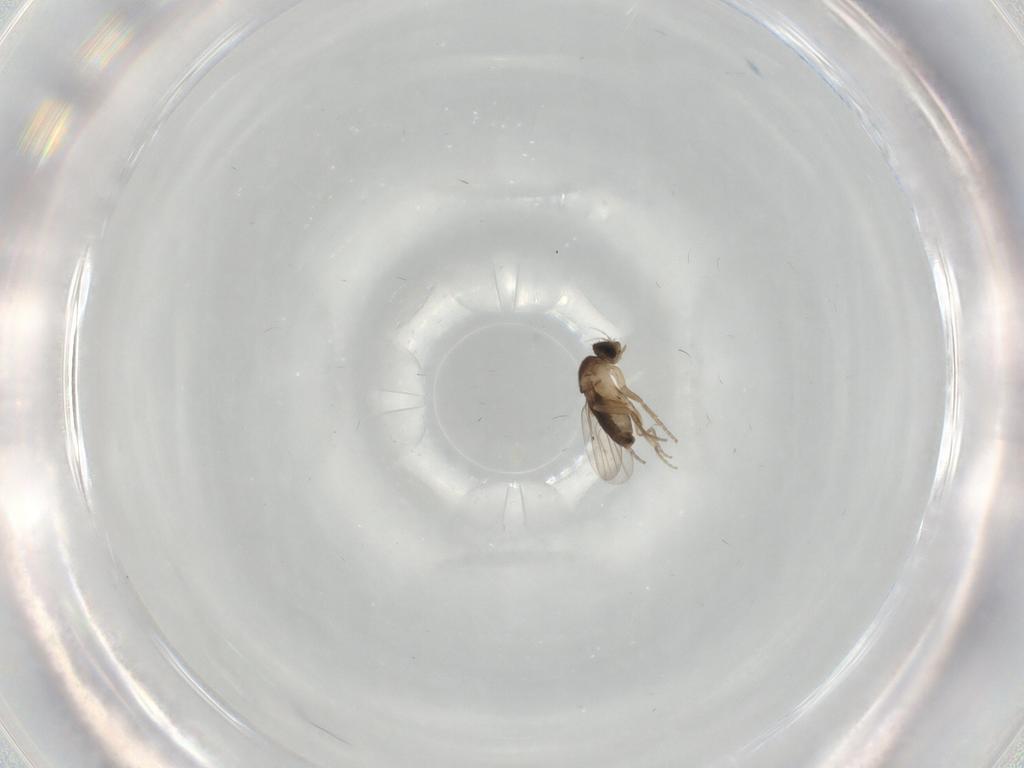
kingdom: Animalia
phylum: Arthropoda
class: Insecta
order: Diptera
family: Phoridae
